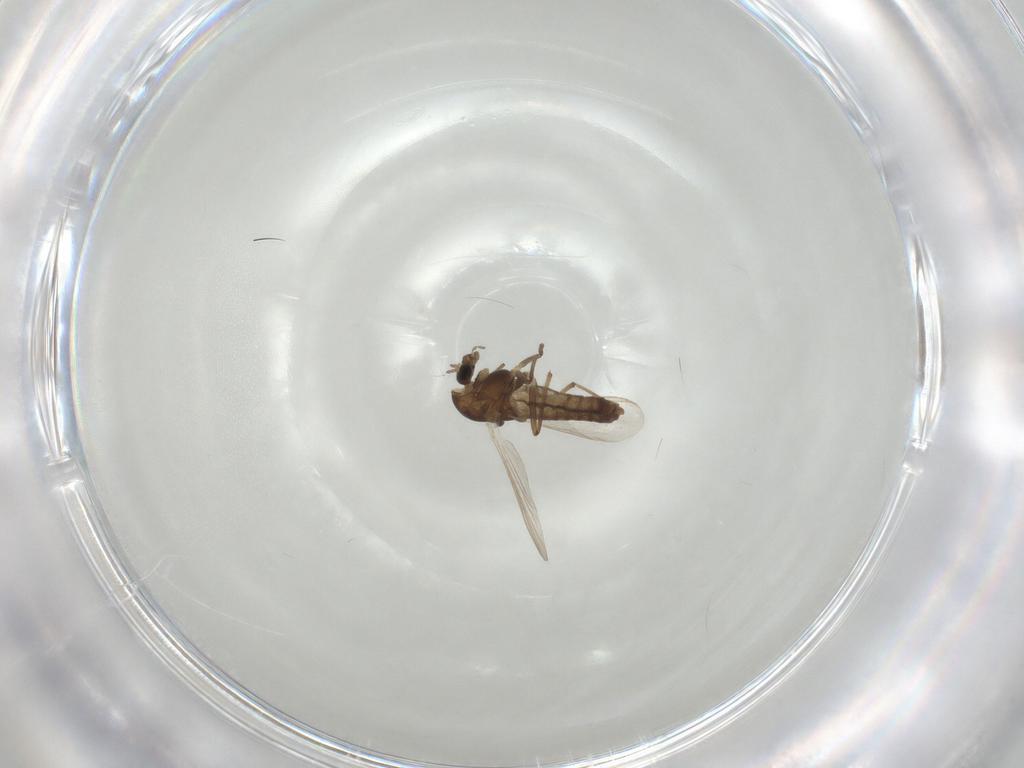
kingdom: Animalia
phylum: Arthropoda
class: Insecta
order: Diptera
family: Chironomidae
